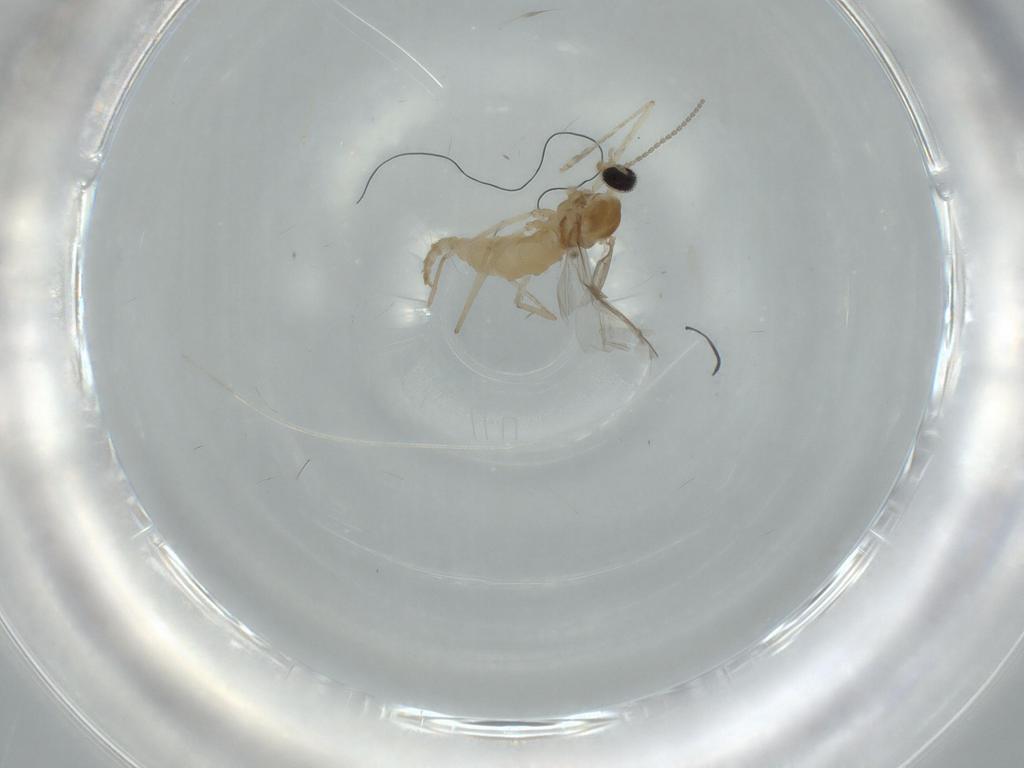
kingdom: Animalia
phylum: Arthropoda
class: Insecta
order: Diptera
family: Cecidomyiidae
